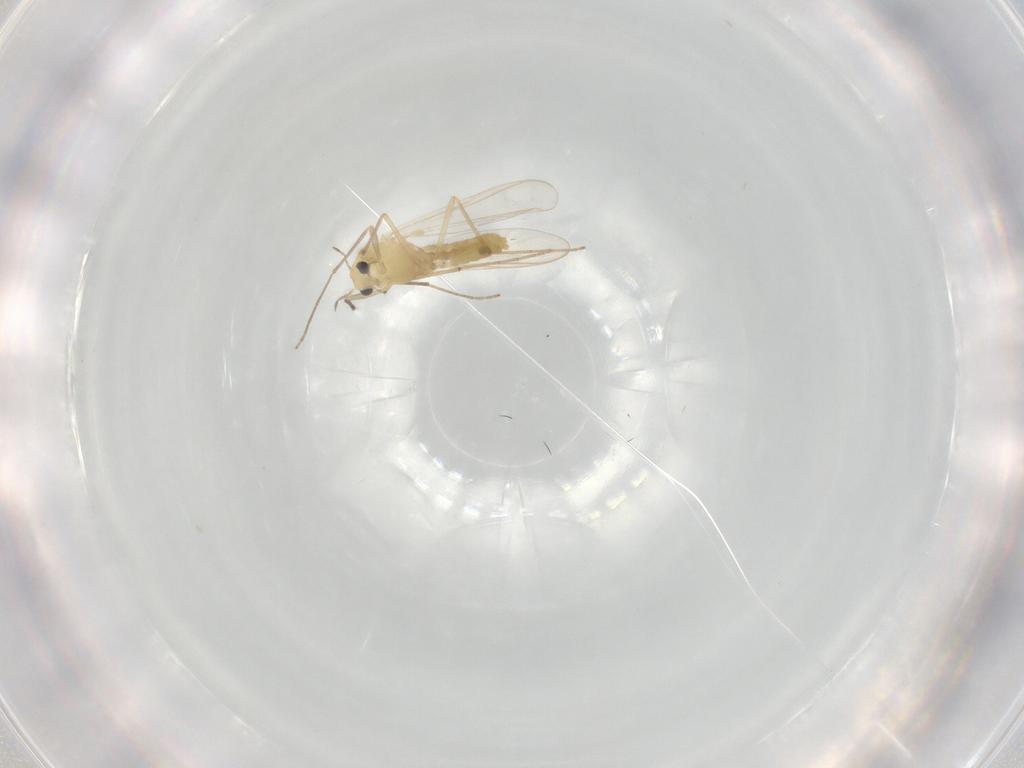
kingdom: Animalia
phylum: Arthropoda
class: Insecta
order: Diptera
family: Chironomidae
